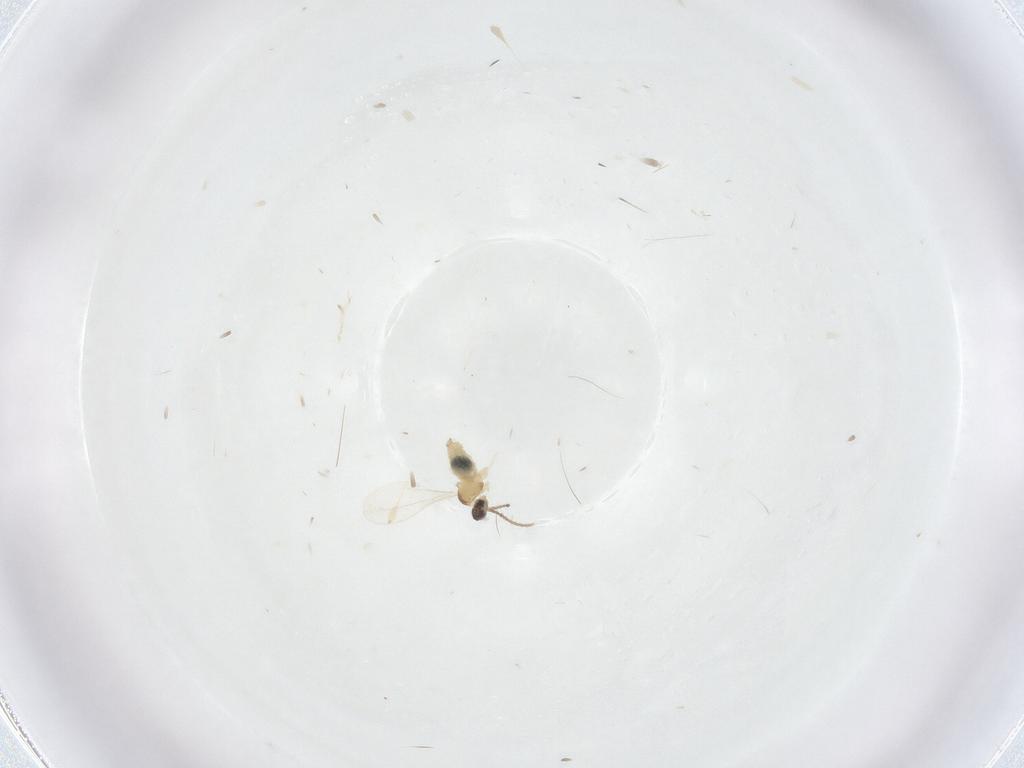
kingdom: Animalia
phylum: Arthropoda
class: Insecta
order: Diptera
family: Cecidomyiidae
